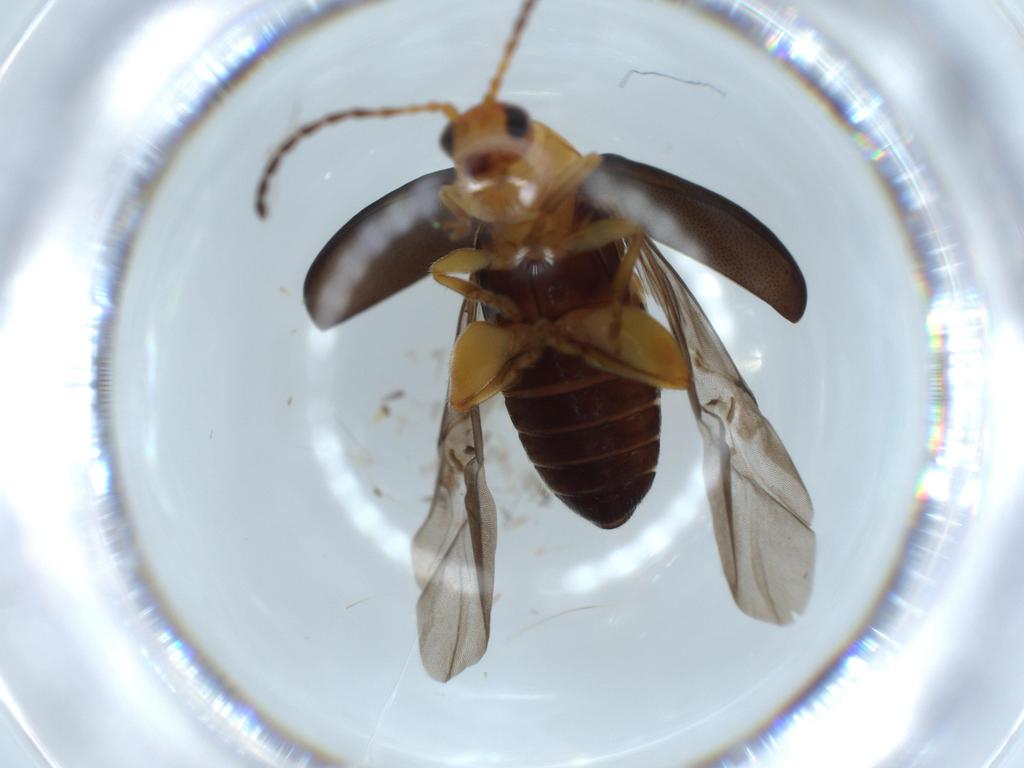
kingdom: Animalia
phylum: Arthropoda
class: Insecta
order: Coleoptera
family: Chrysomelidae
